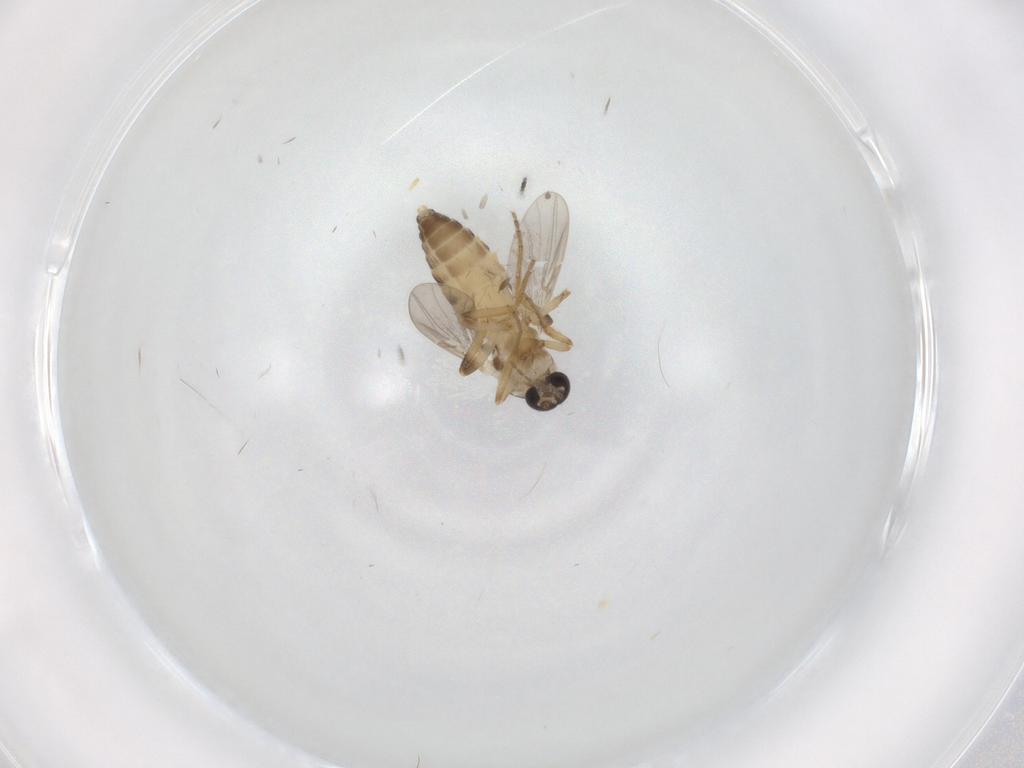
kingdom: Animalia
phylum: Arthropoda
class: Insecta
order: Diptera
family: Ceratopogonidae
